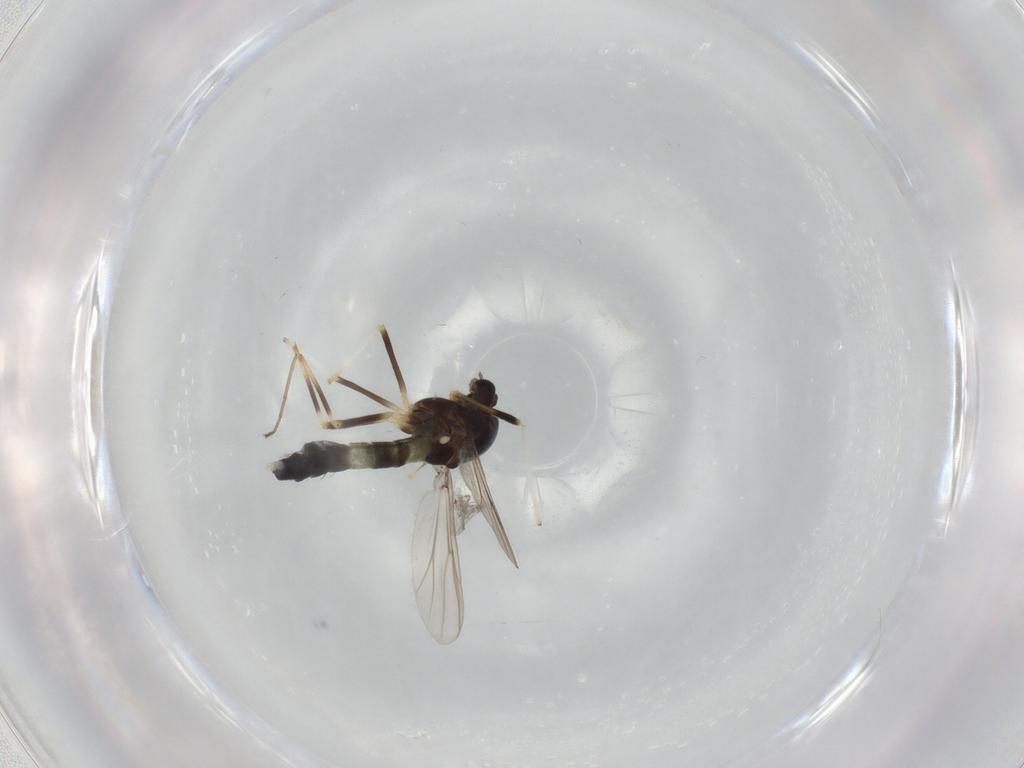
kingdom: Animalia
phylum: Arthropoda
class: Insecta
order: Diptera
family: Chironomidae
